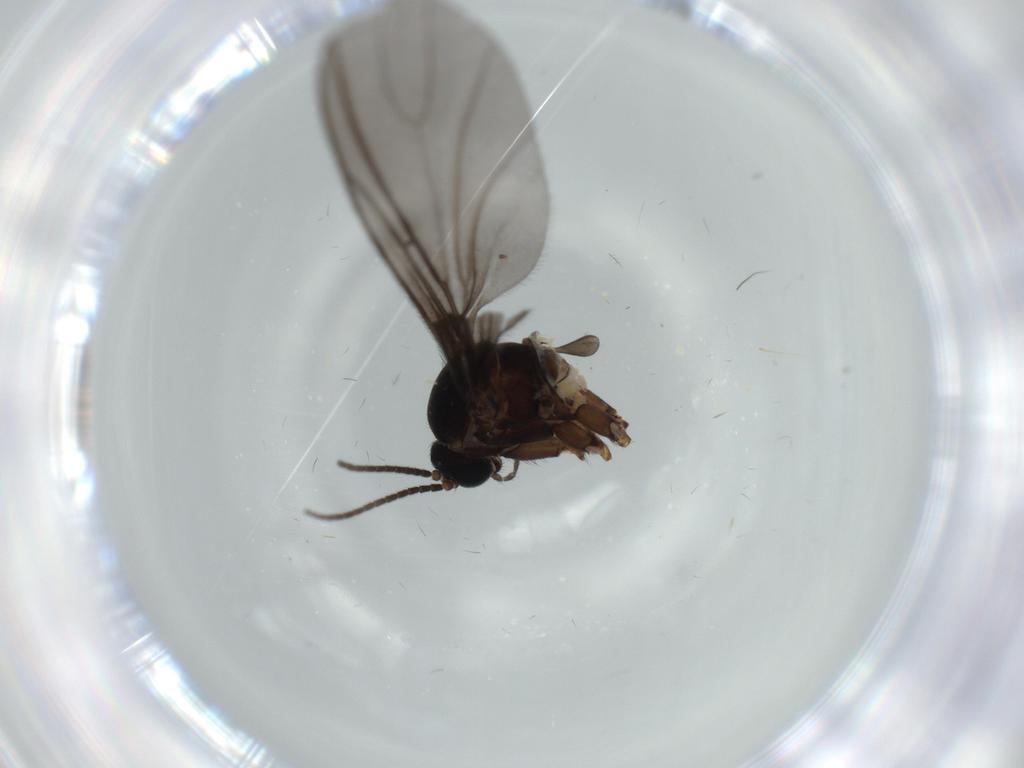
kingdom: Animalia
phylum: Arthropoda
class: Insecta
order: Diptera
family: Sciaridae
